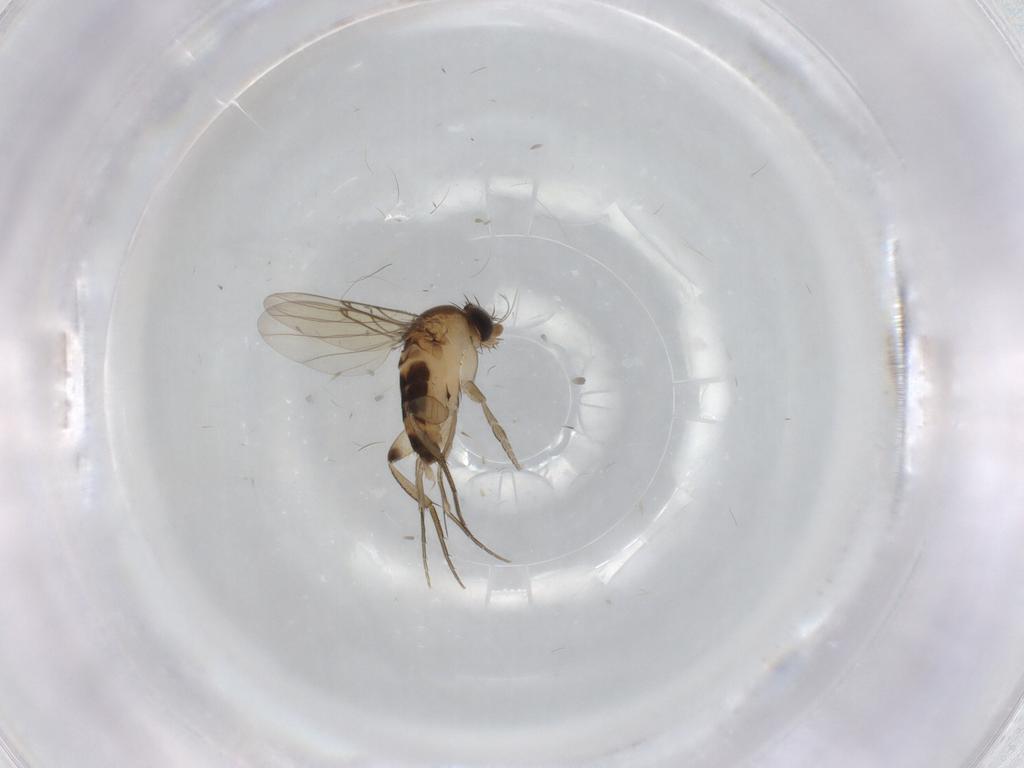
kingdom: Animalia
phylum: Arthropoda
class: Insecta
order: Diptera
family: Phoridae
